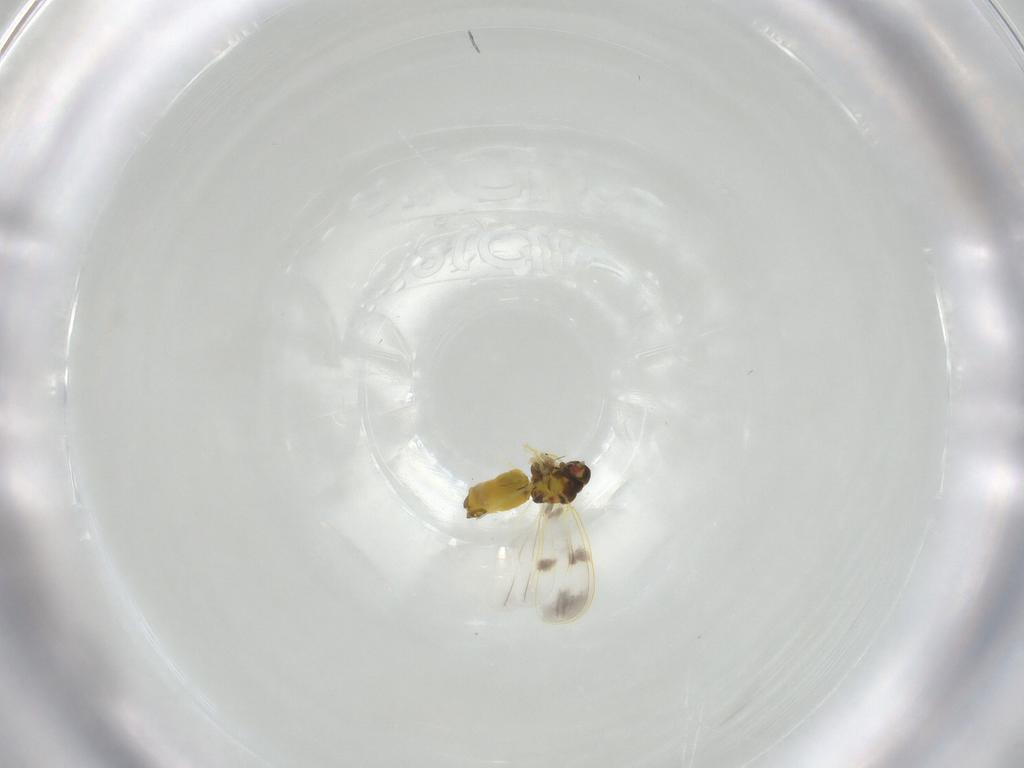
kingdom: Animalia
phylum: Arthropoda
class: Insecta
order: Hemiptera
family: Aleyrodidae
